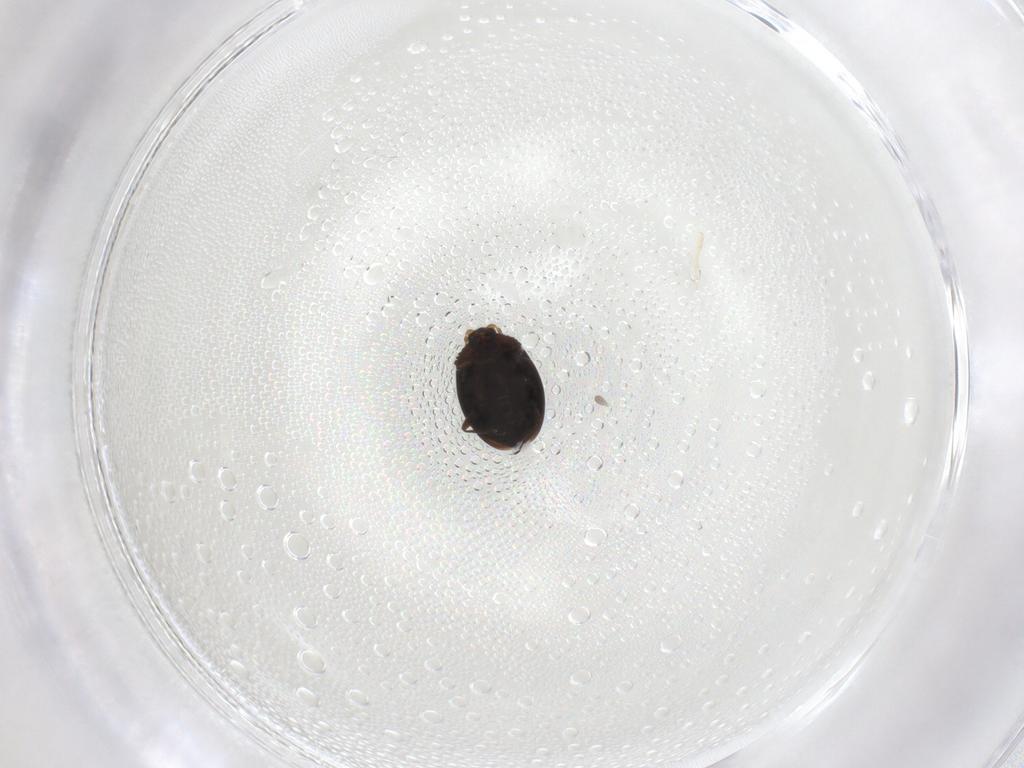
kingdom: Animalia
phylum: Arthropoda
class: Insecta
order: Coleoptera
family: Corylophidae
